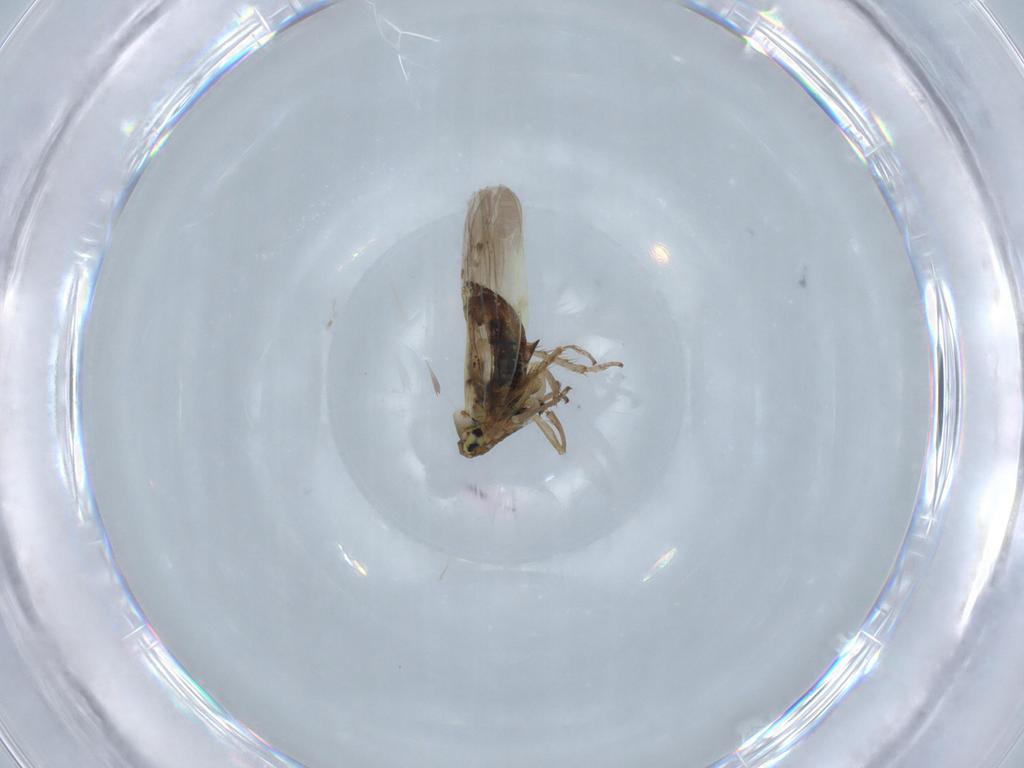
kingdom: Animalia
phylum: Arthropoda
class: Insecta
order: Hemiptera
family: Cicadellidae
